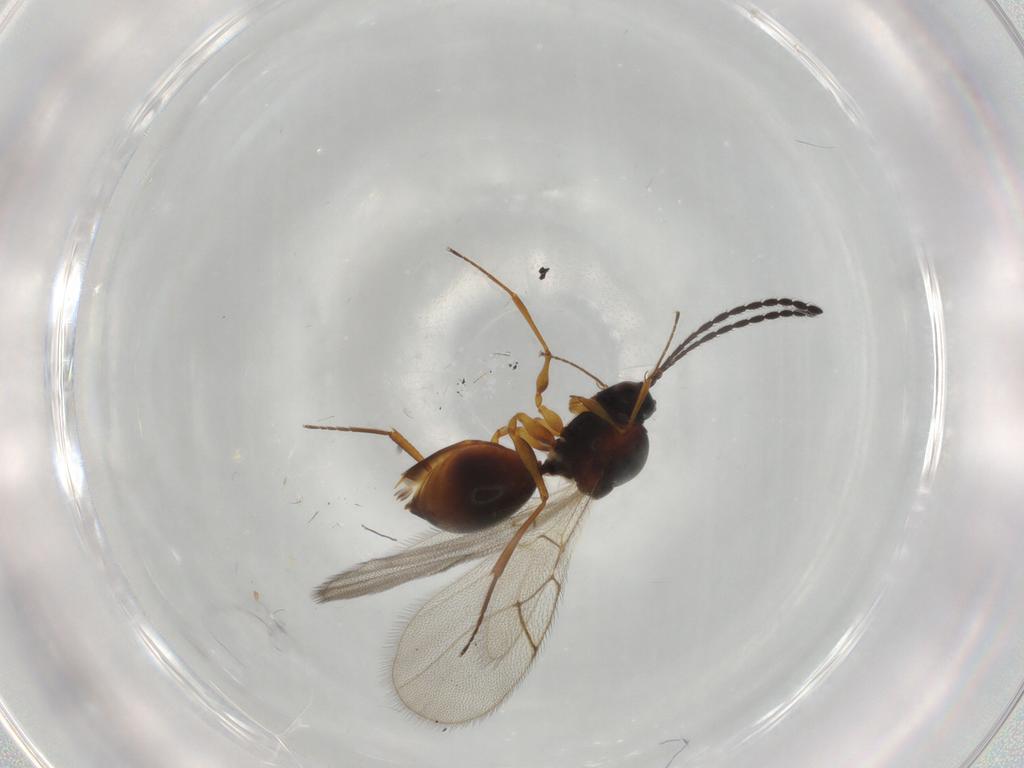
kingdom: Animalia
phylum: Arthropoda
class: Insecta
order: Hymenoptera
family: Figitidae
